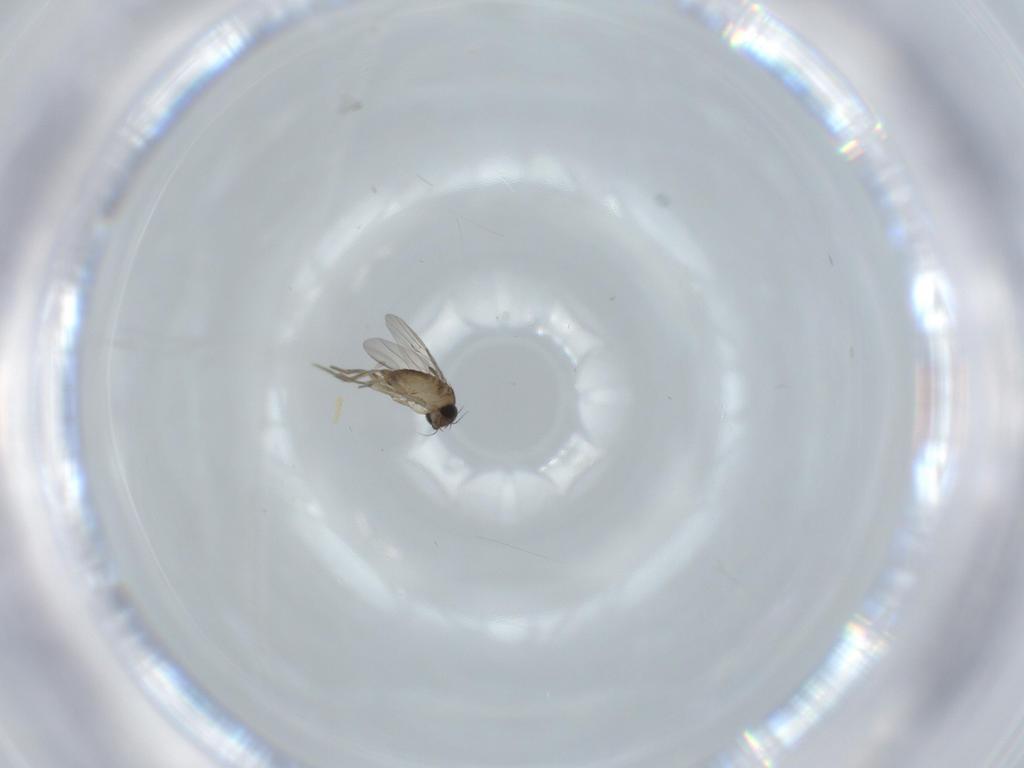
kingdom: Animalia
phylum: Arthropoda
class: Insecta
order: Diptera
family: Phoridae
